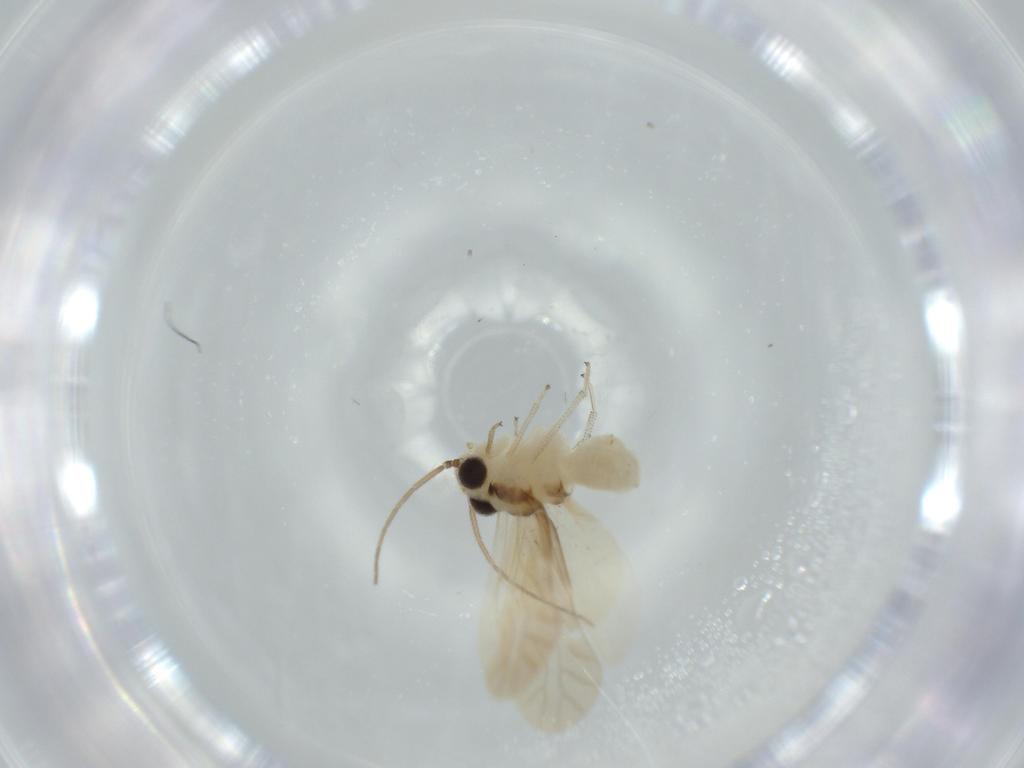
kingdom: Animalia
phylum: Arthropoda
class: Insecta
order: Psocodea
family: Caeciliusidae
